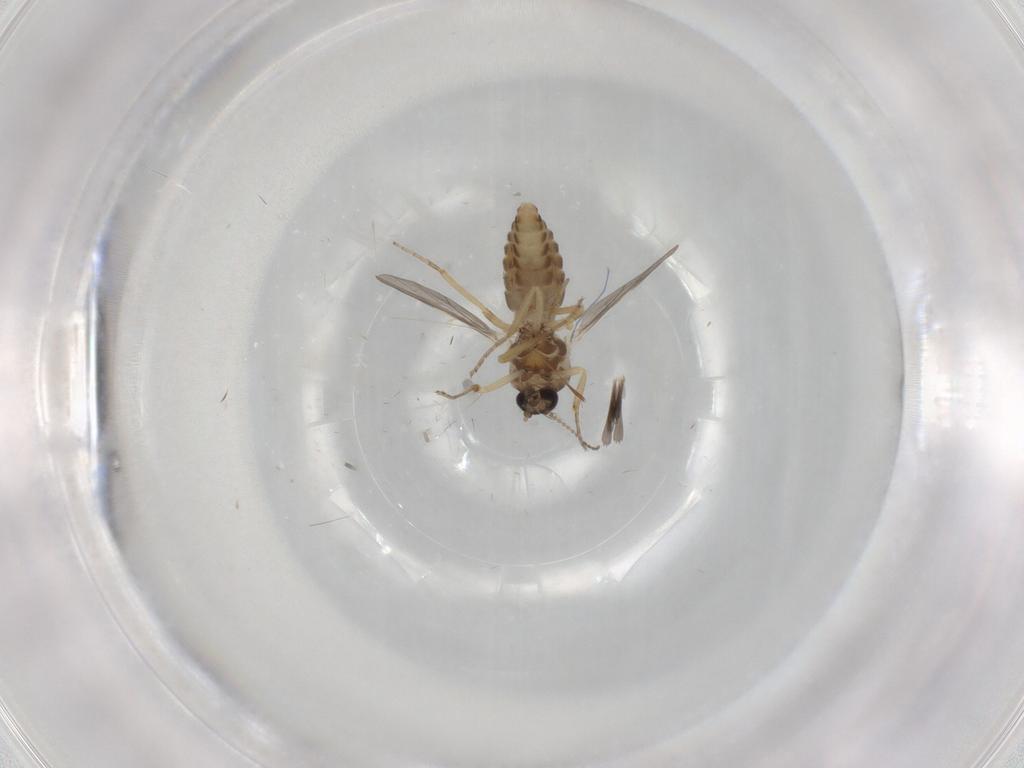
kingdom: Animalia
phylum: Arthropoda
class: Insecta
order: Diptera
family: Ceratopogonidae
